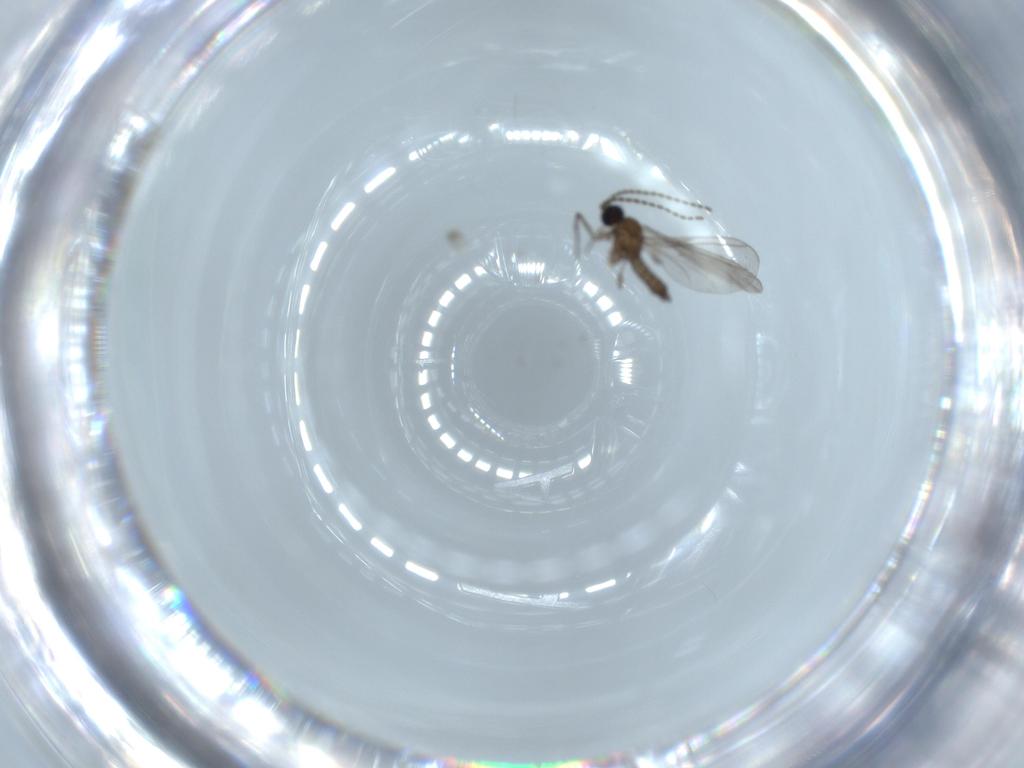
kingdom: Animalia
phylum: Arthropoda
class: Insecta
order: Diptera
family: Sciaridae
